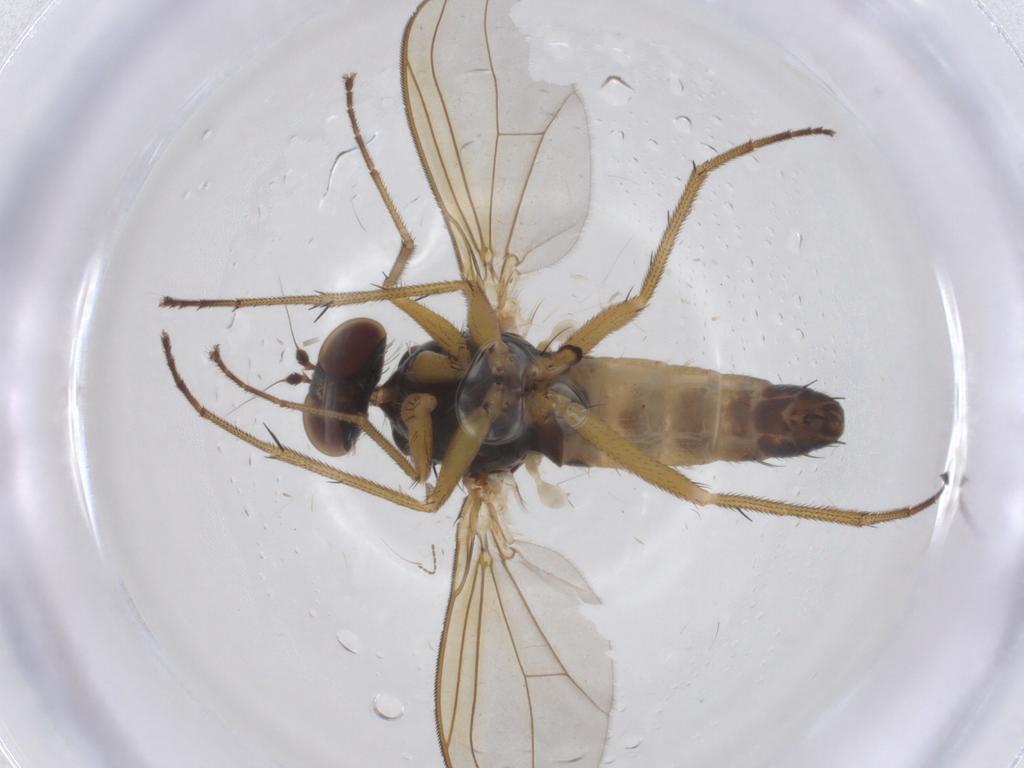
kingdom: Animalia
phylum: Arthropoda
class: Insecta
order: Diptera
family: Cecidomyiidae
